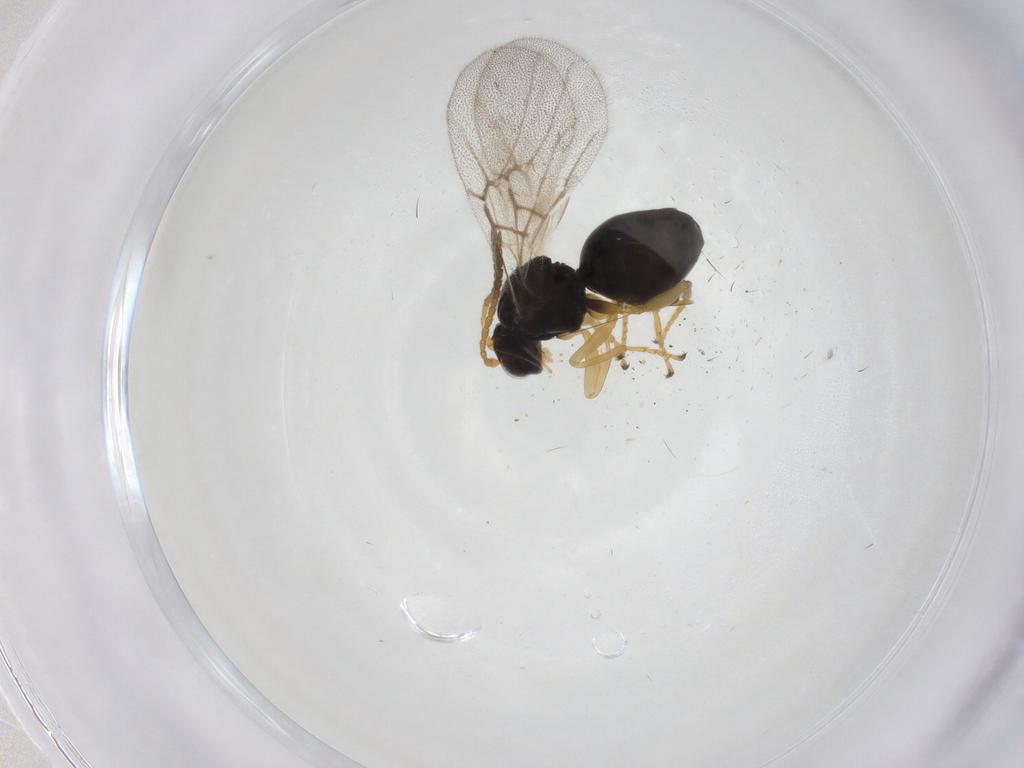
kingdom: Animalia
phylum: Arthropoda
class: Insecta
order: Hymenoptera
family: Cynipidae
